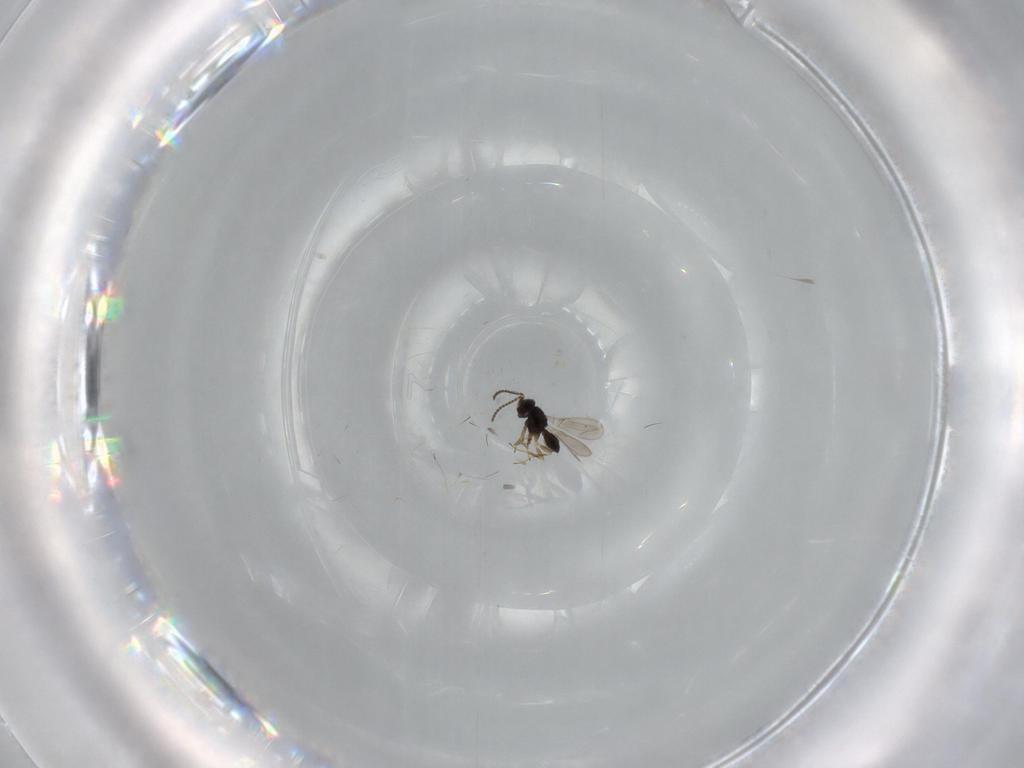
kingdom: Animalia
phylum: Arthropoda
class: Insecta
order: Hymenoptera
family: Scelionidae
